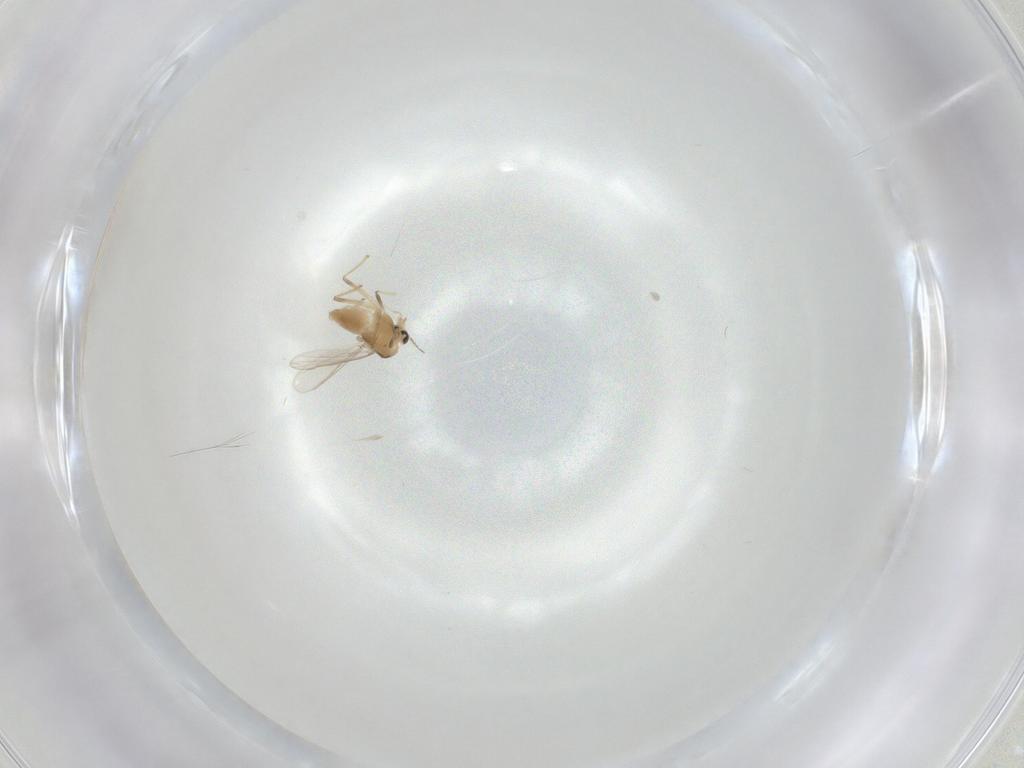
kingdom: Animalia
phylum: Arthropoda
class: Insecta
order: Diptera
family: Chironomidae
